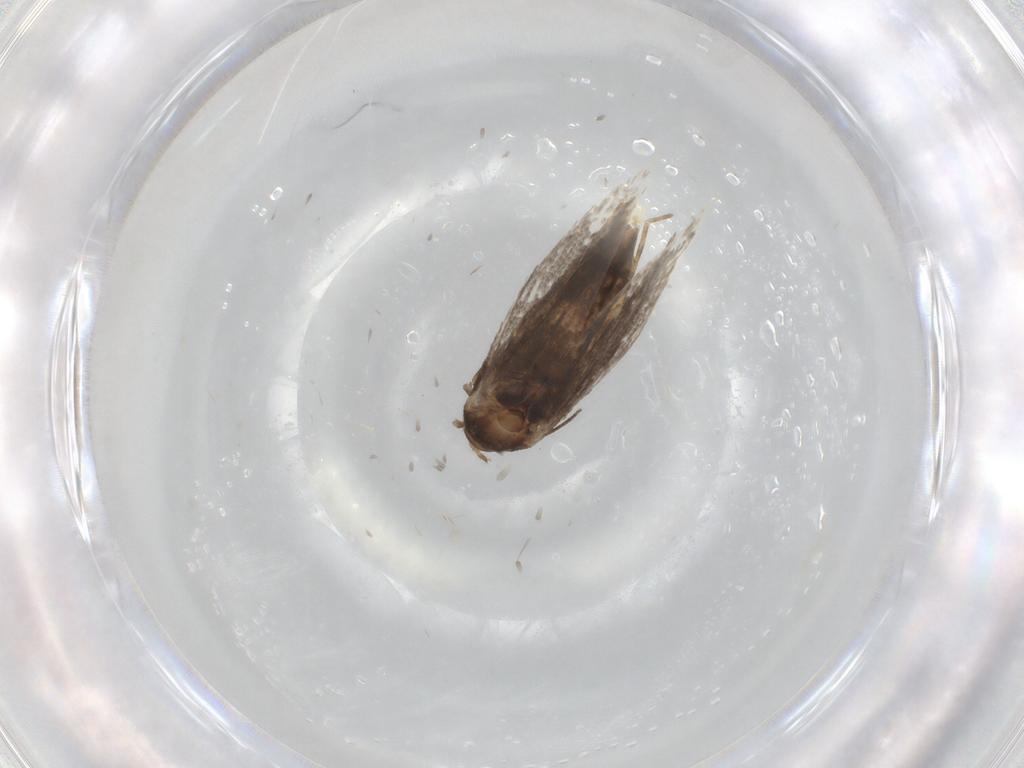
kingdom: Animalia
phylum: Arthropoda
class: Insecta
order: Lepidoptera
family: Elachistidae
